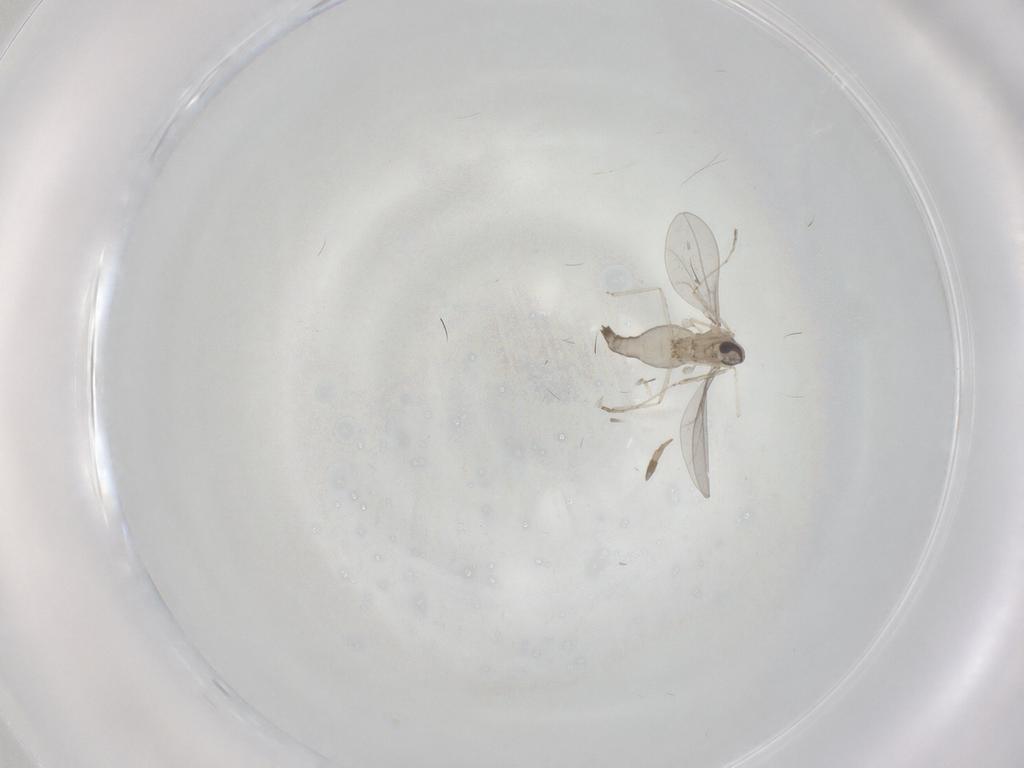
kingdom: Animalia
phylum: Arthropoda
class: Insecta
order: Diptera
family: Cecidomyiidae
